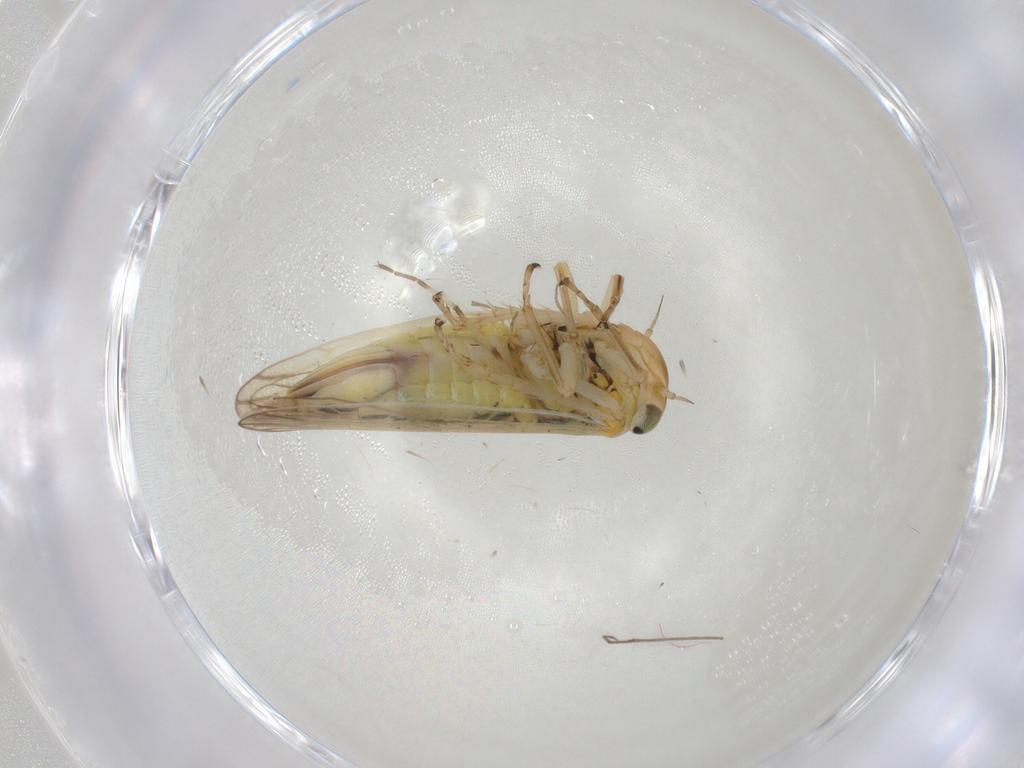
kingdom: Animalia
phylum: Arthropoda
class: Insecta
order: Hemiptera
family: Cicadellidae
